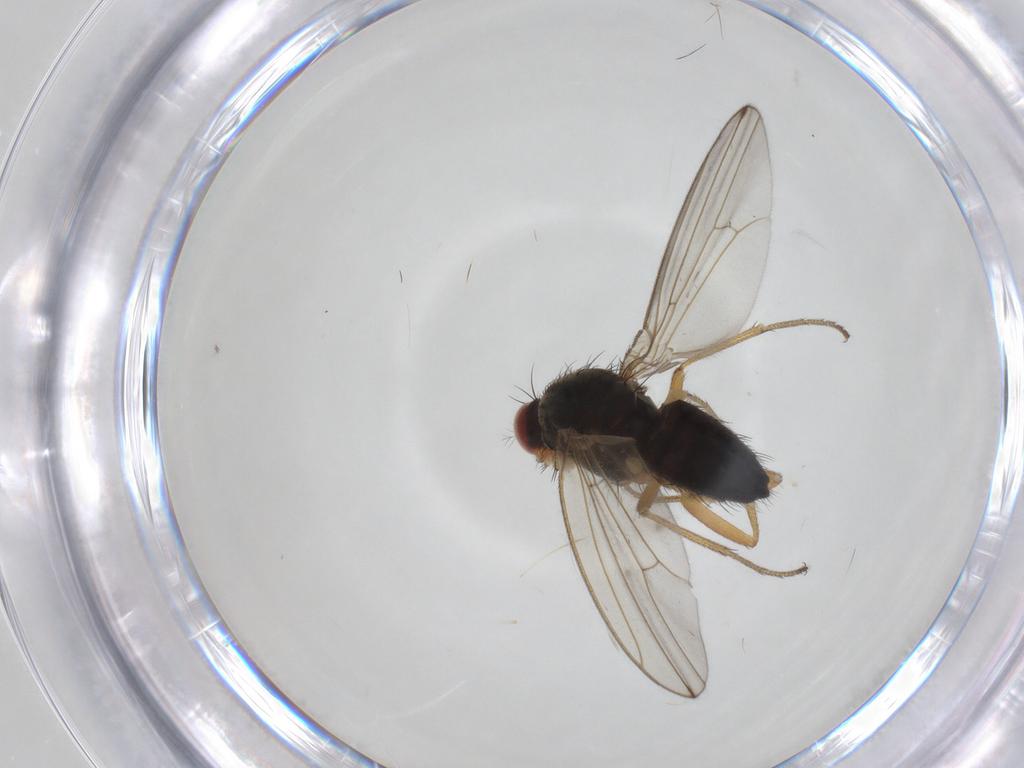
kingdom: Animalia
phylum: Arthropoda
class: Insecta
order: Diptera
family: Drosophilidae
